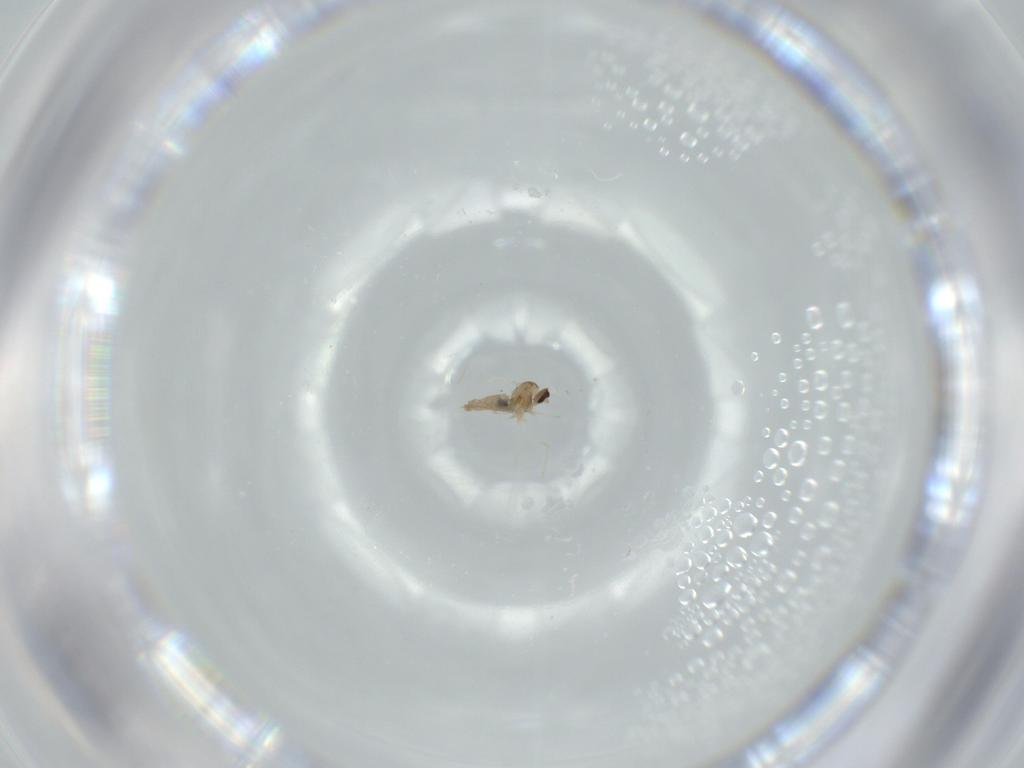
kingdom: Animalia
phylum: Arthropoda
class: Insecta
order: Diptera
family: Cecidomyiidae
